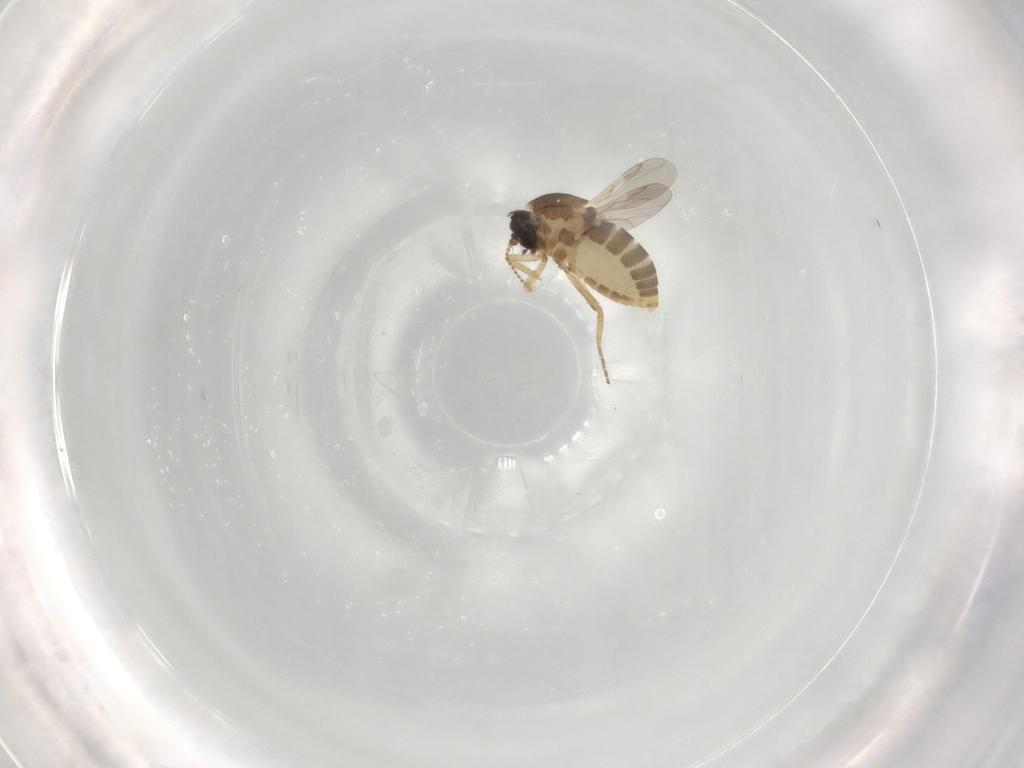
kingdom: Animalia
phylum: Arthropoda
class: Insecta
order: Diptera
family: Ceratopogonidae
